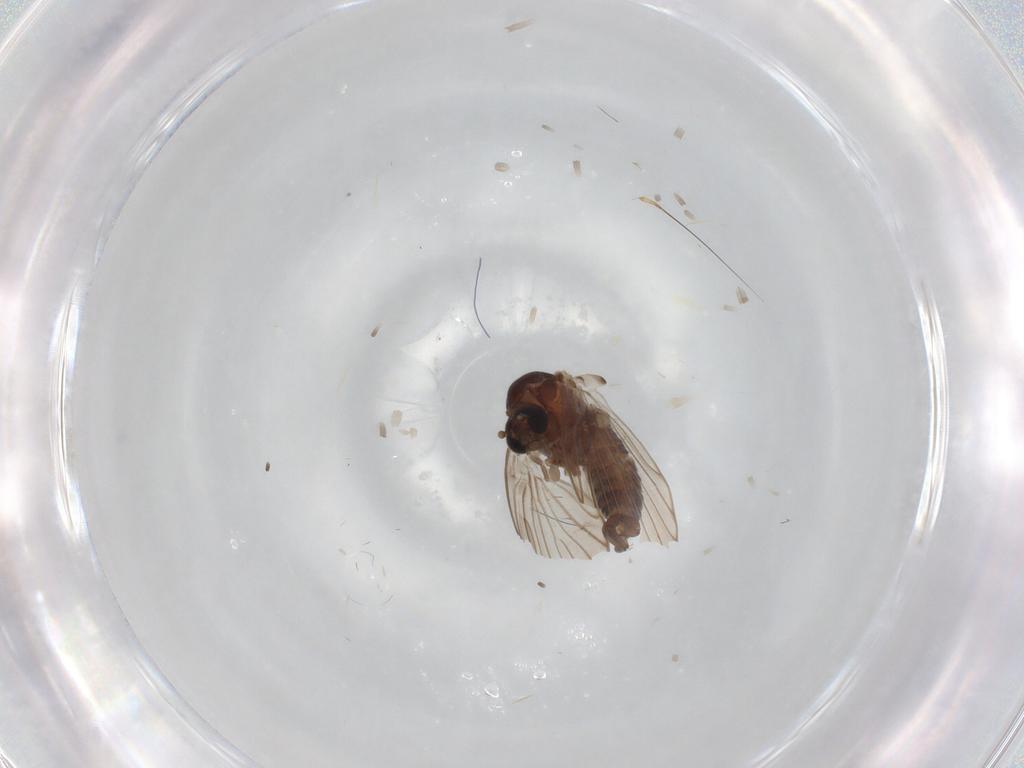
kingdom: Animalia
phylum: Arthropoda
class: Insecta
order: Diptera
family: Psychodidae
